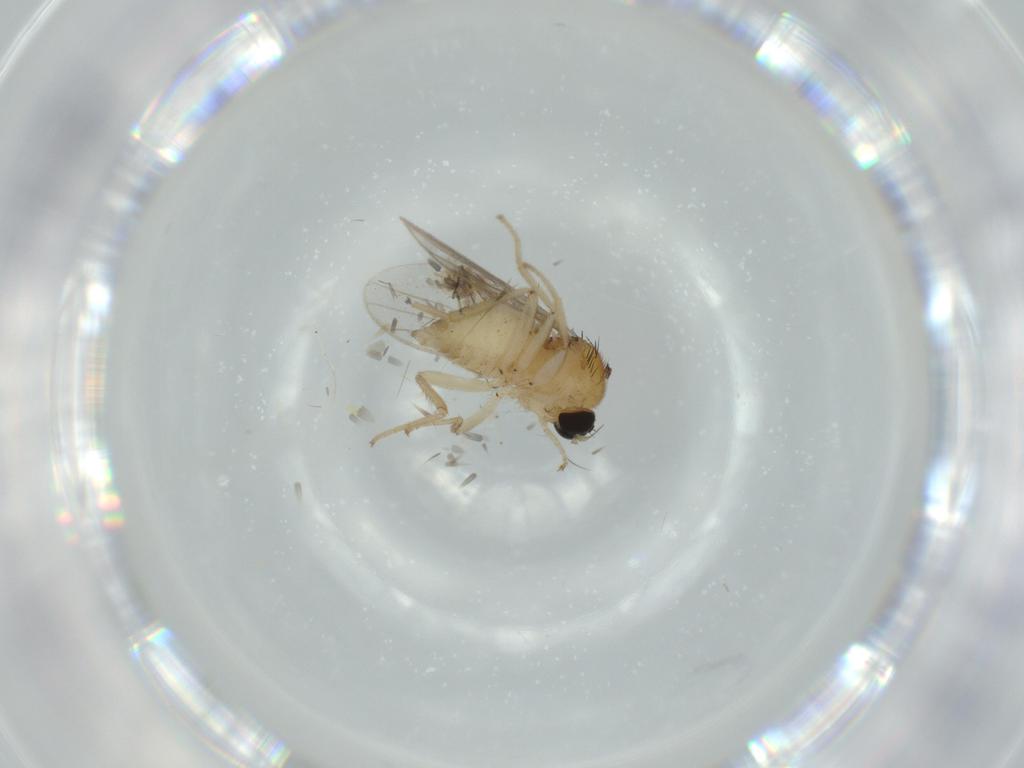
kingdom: Animalia
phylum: Arthropoda
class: Insecta
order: Diptera
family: Hybotidae
